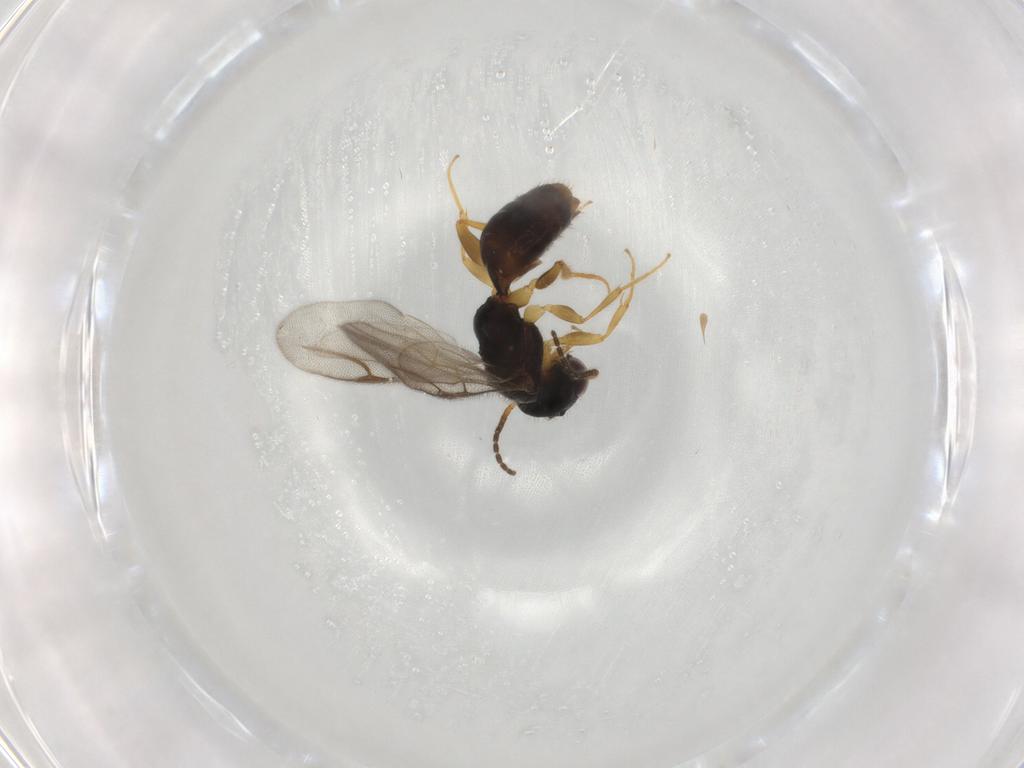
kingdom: Animalia
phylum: Arthropoda
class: Insecta
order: Hymenoptera
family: Bethylidae
